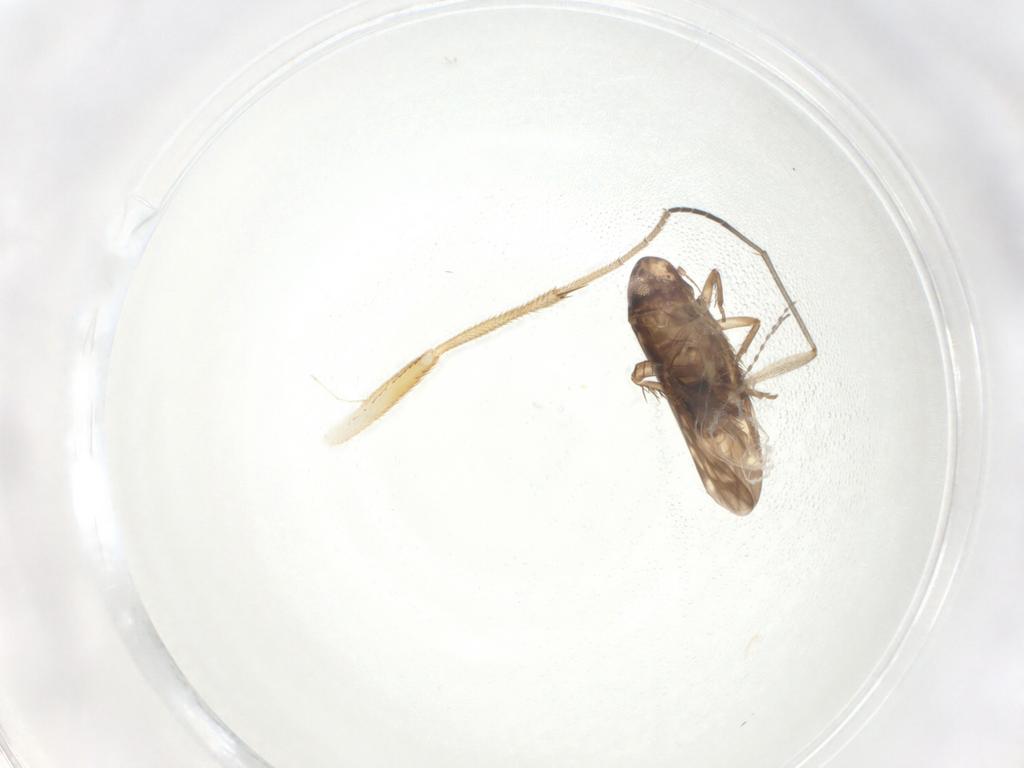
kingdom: Animalia
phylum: Arthropoda
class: Insecta
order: Hemiptera
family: Cicadellidae
